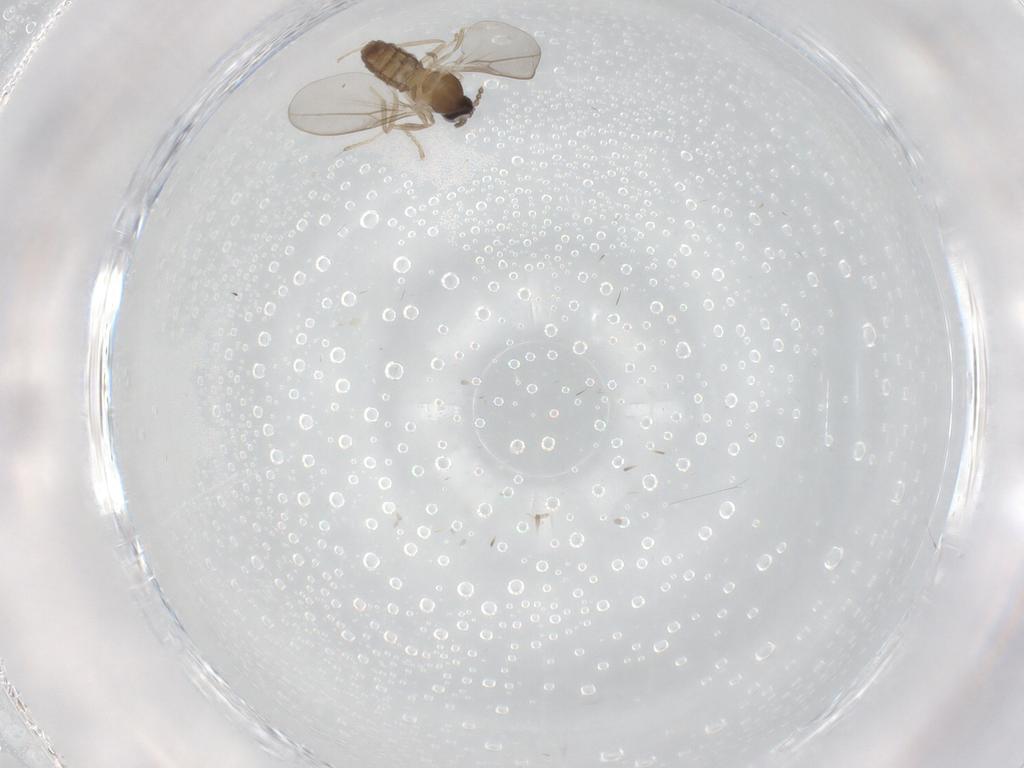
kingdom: Animalia
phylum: Arthropoda
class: Insecta
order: Diptera
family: Cecidomyiidae
